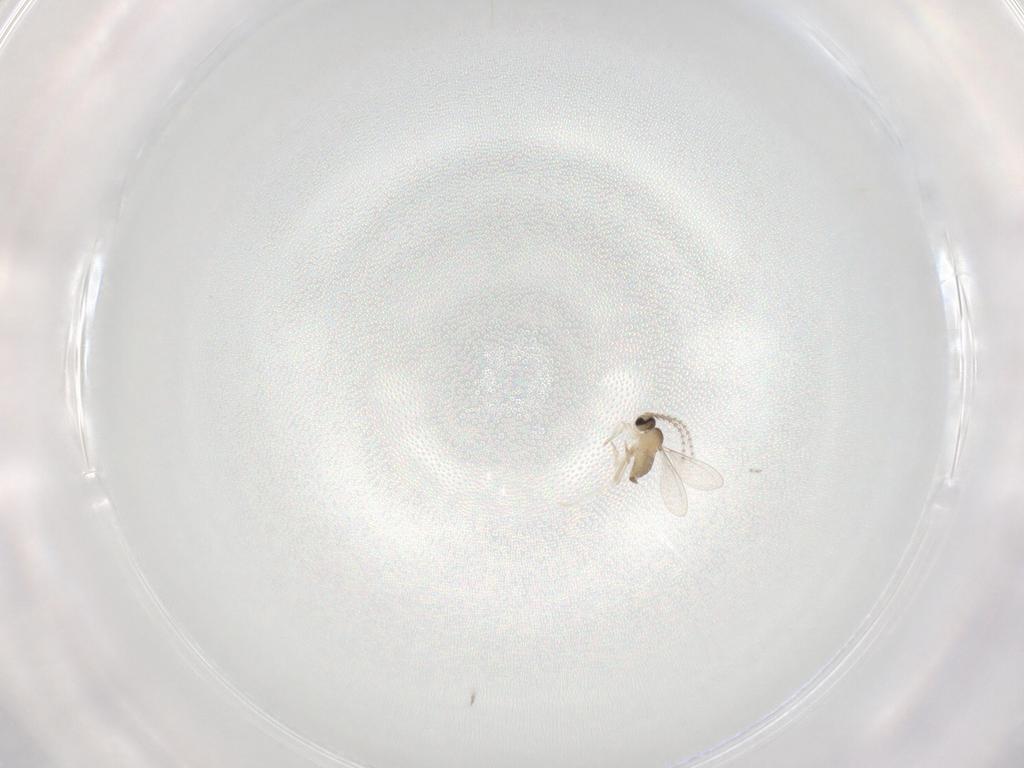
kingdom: Animalia
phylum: Arthropoda
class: Insecta
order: Diptera
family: Cecidomyiidae
